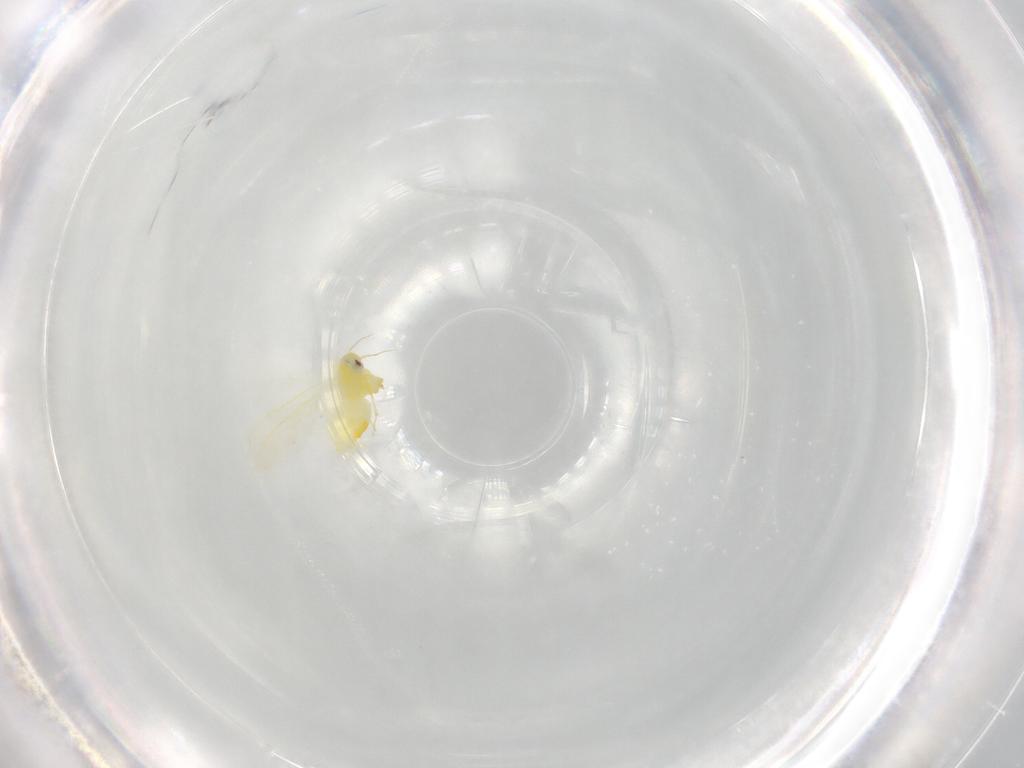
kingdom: Animalia
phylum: Arthropoda
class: Insecta
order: Hemiptera
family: Aleyrodidae
